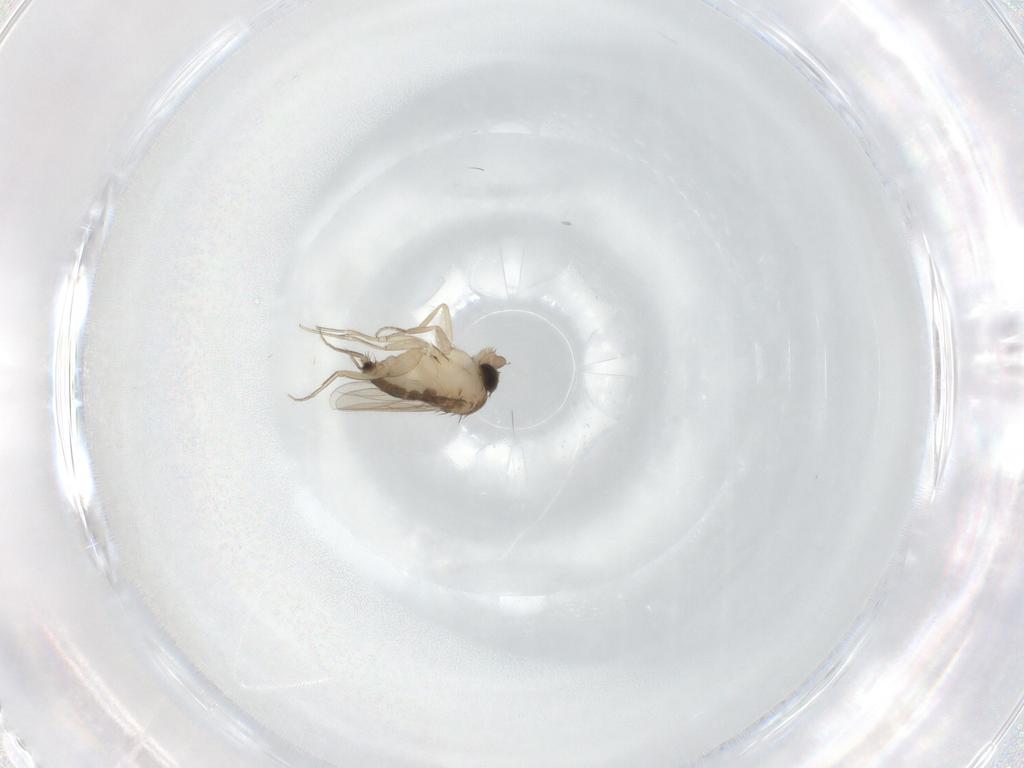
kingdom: Animalia
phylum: Arthropoda
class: Insecta
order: Diptera
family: Phoridae
